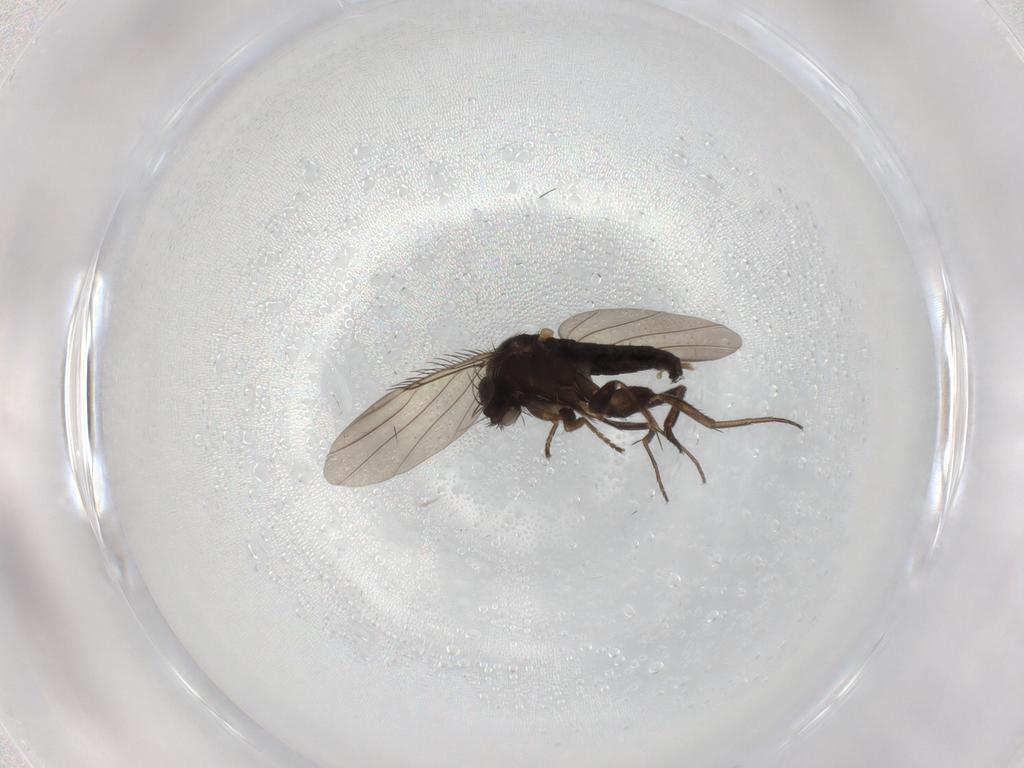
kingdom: Animalia
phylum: Arthropoda
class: Insecta
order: Diptera
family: Phoridae
